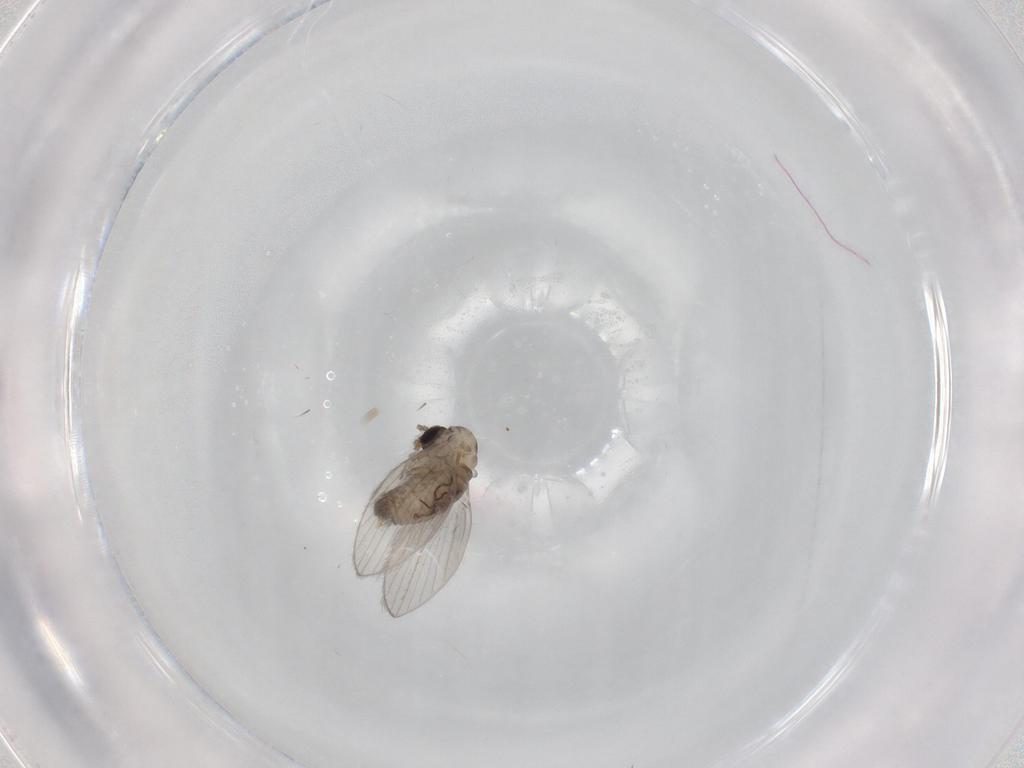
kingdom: Animalia
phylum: Arthropoda
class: Insecta
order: Diptera
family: Psychodidae
